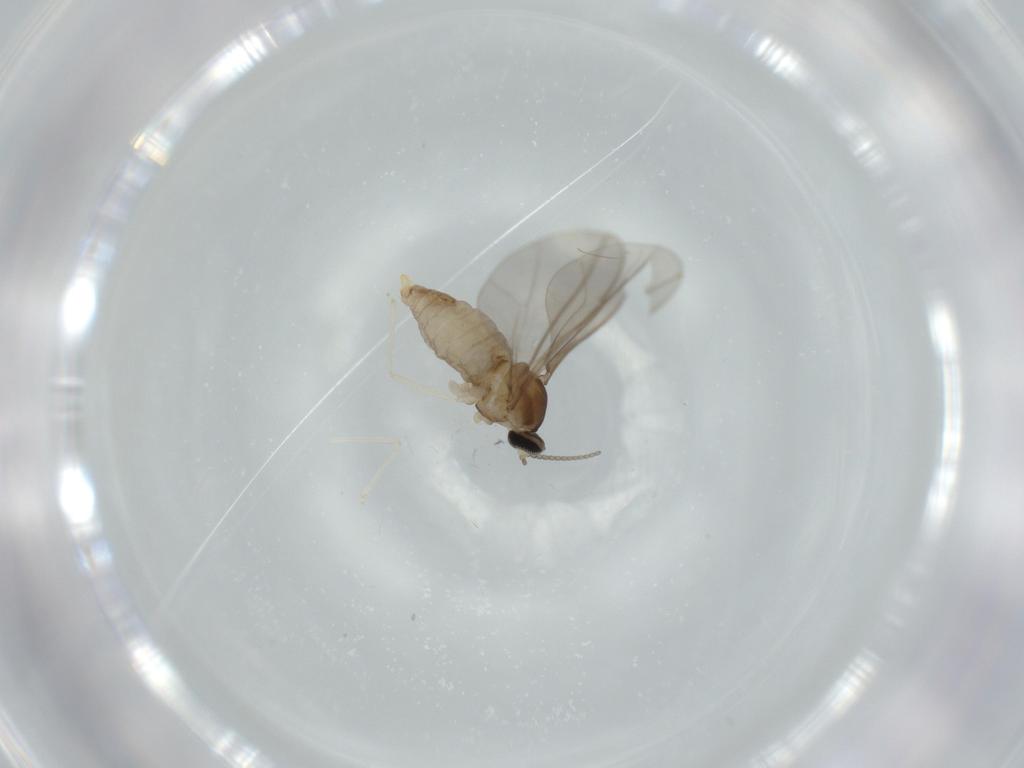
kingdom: Animalia
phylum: Arthropoda
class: Insecta
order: Diptera
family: Cecidomyiidae
